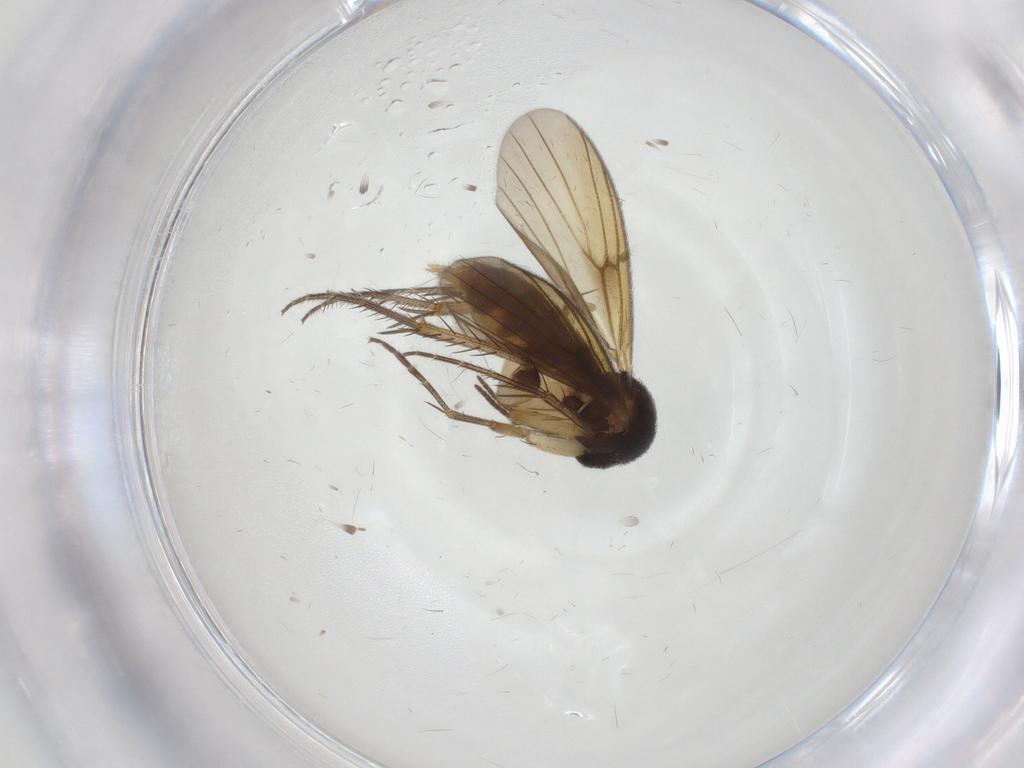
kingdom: Animalia
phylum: Arthropoda
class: Insecta
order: Diptera
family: Mycetophilidae
